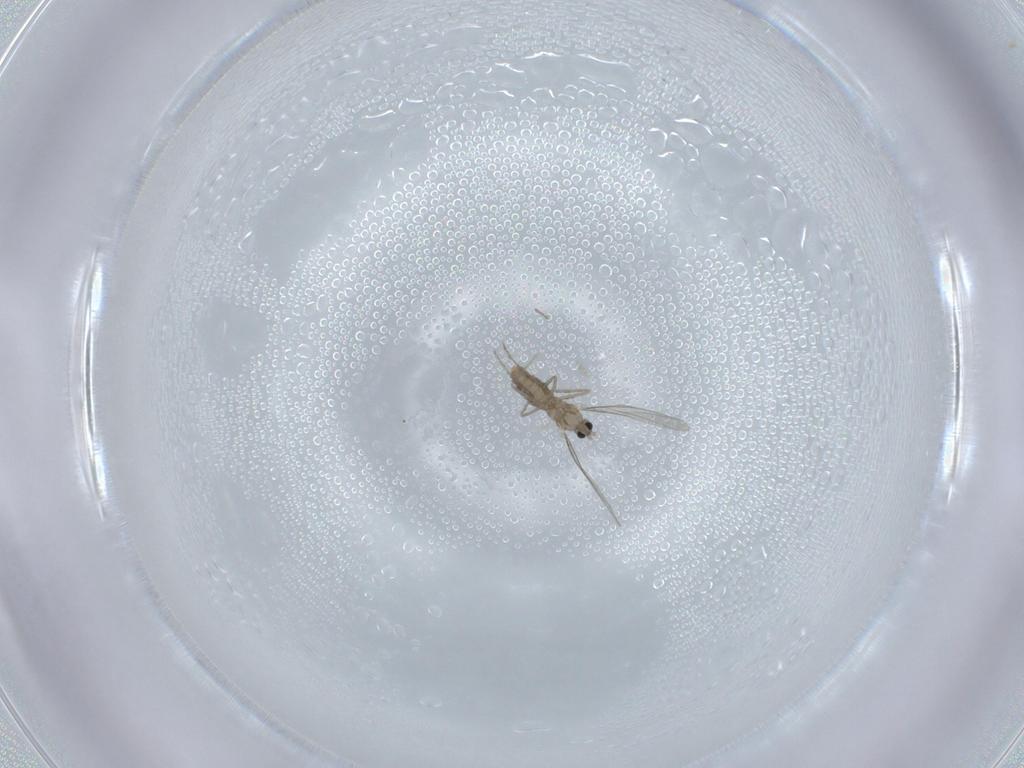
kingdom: Animalia
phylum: Arthropoda
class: Insecta
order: Diptera
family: Cecidomyiidae
